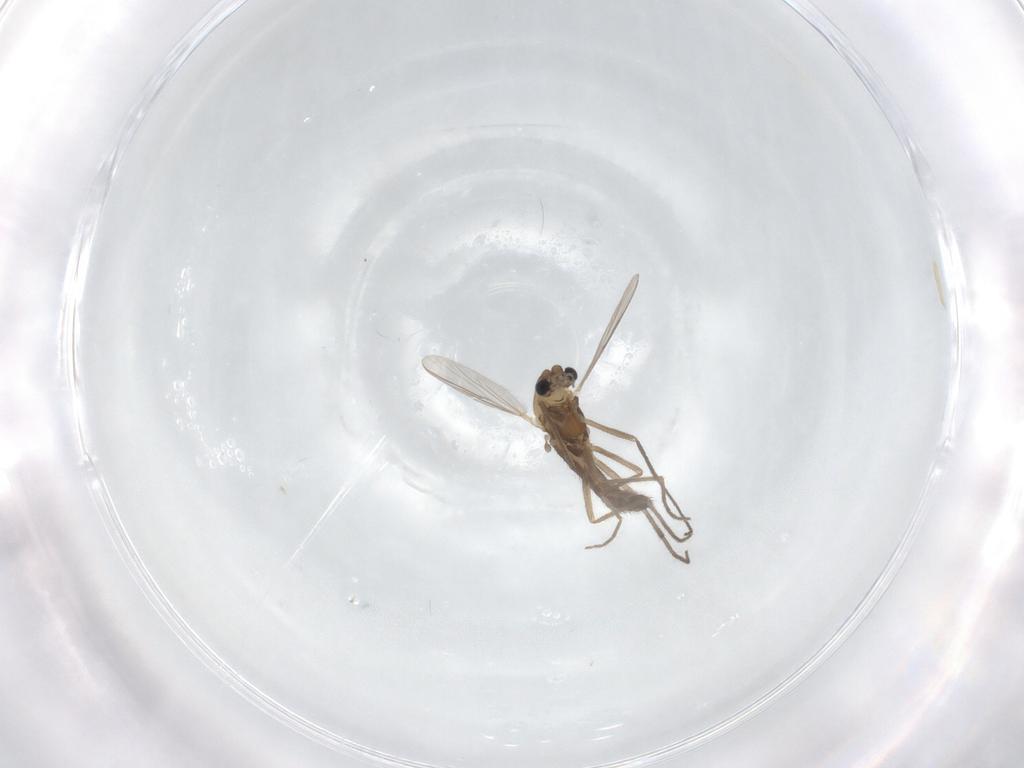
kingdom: Animalia
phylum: Arthropoda
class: Insecta
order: Diptera
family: Chironomidae
